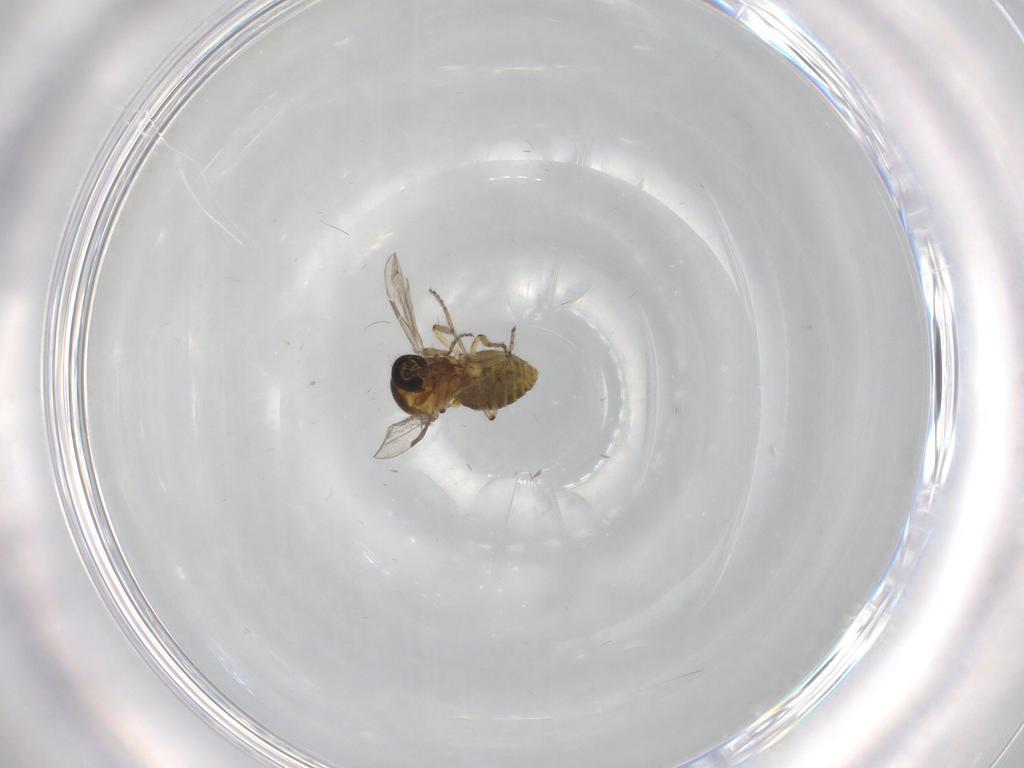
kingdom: Animalia
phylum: Arthropoda
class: Insecta
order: Diptera
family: Ceratopogonidae
